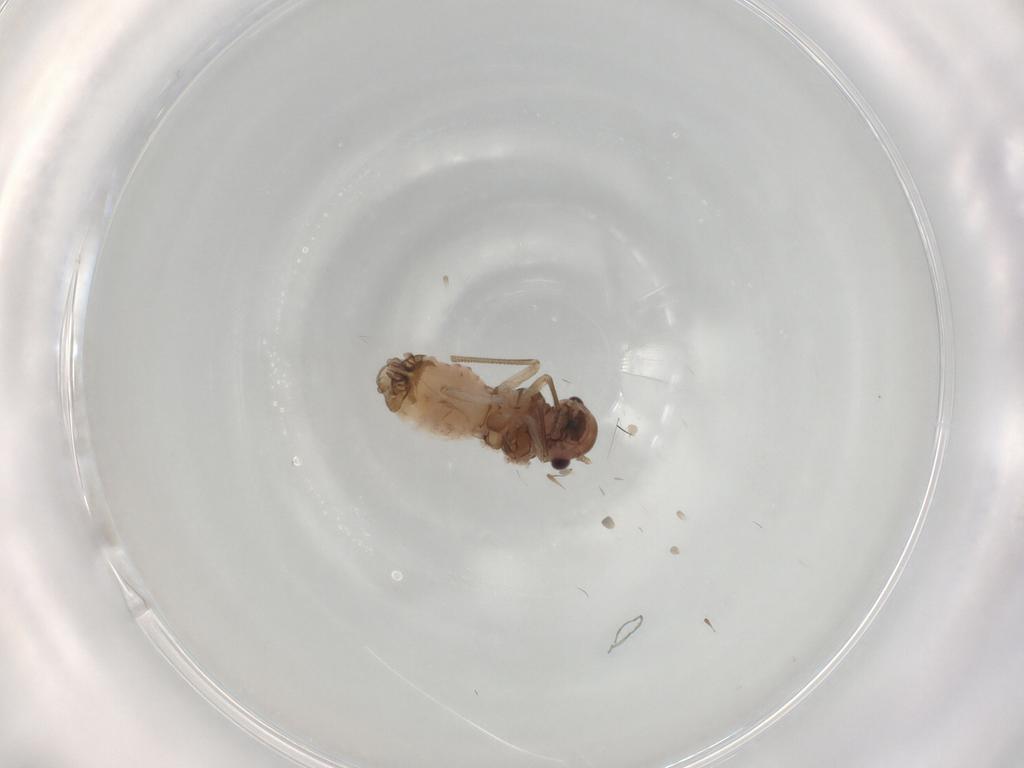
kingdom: Animalia
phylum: Arthropoda
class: Insecta
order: Psocodea
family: Peripsocidae
